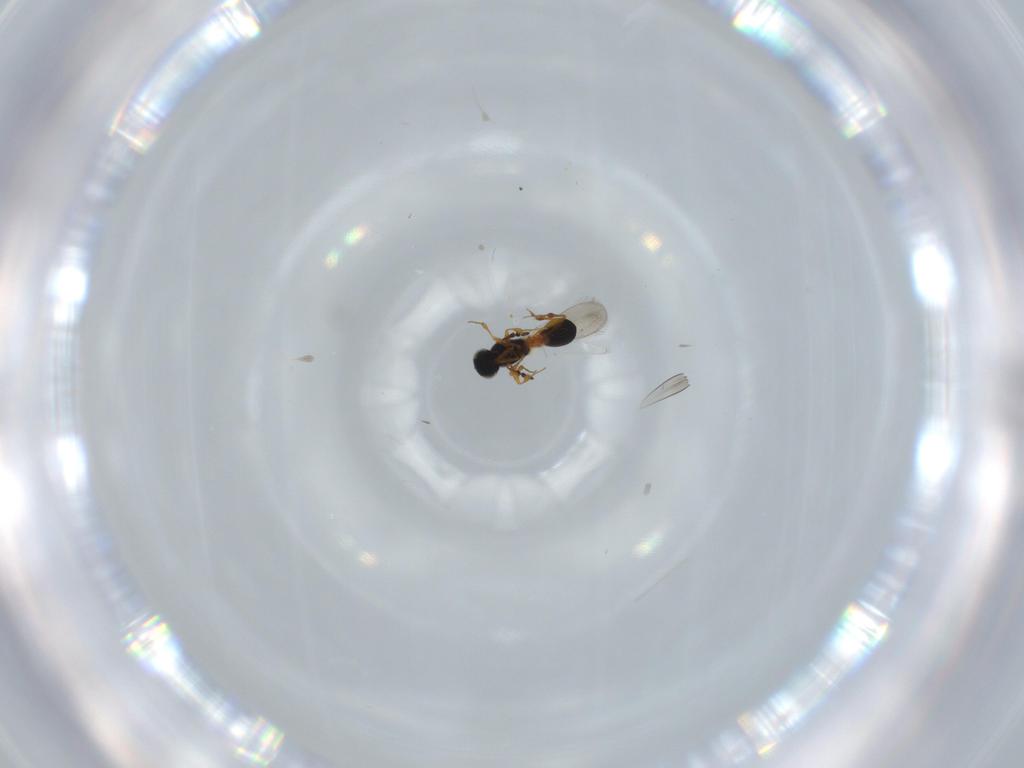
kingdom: Animalia
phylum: Arthropoda
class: Insecta
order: Hymenoptera
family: Platygastridae
